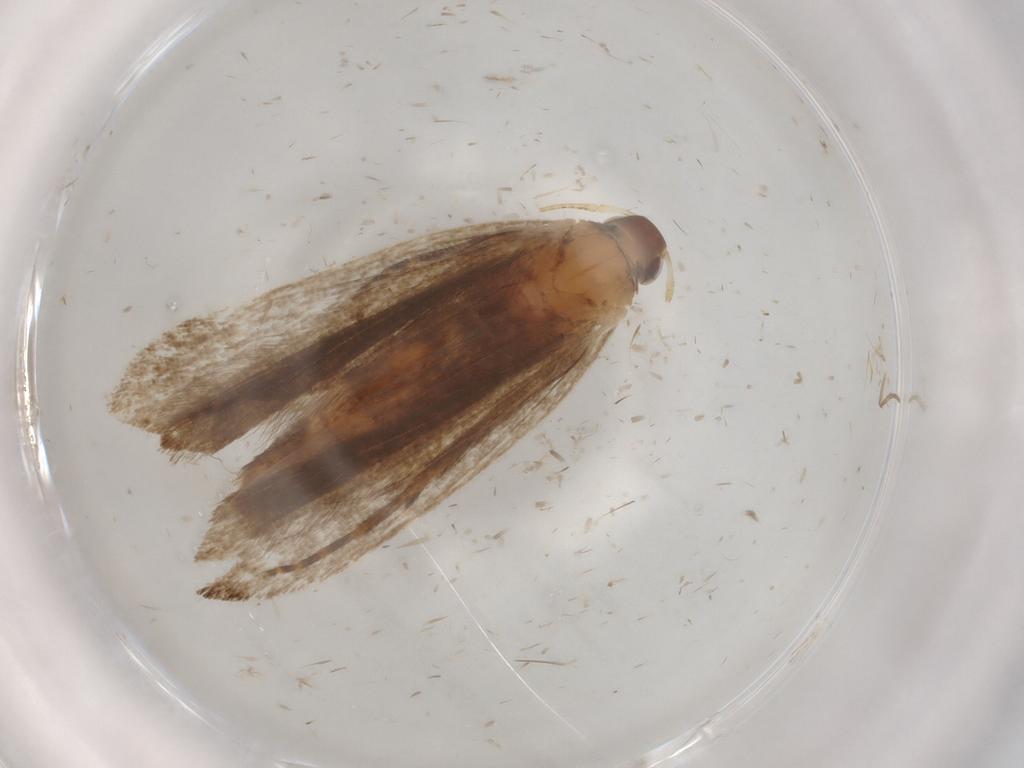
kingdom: Animalia
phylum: Arthropoda
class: Insecta
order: Lepidoptera
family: Gelechiidae
